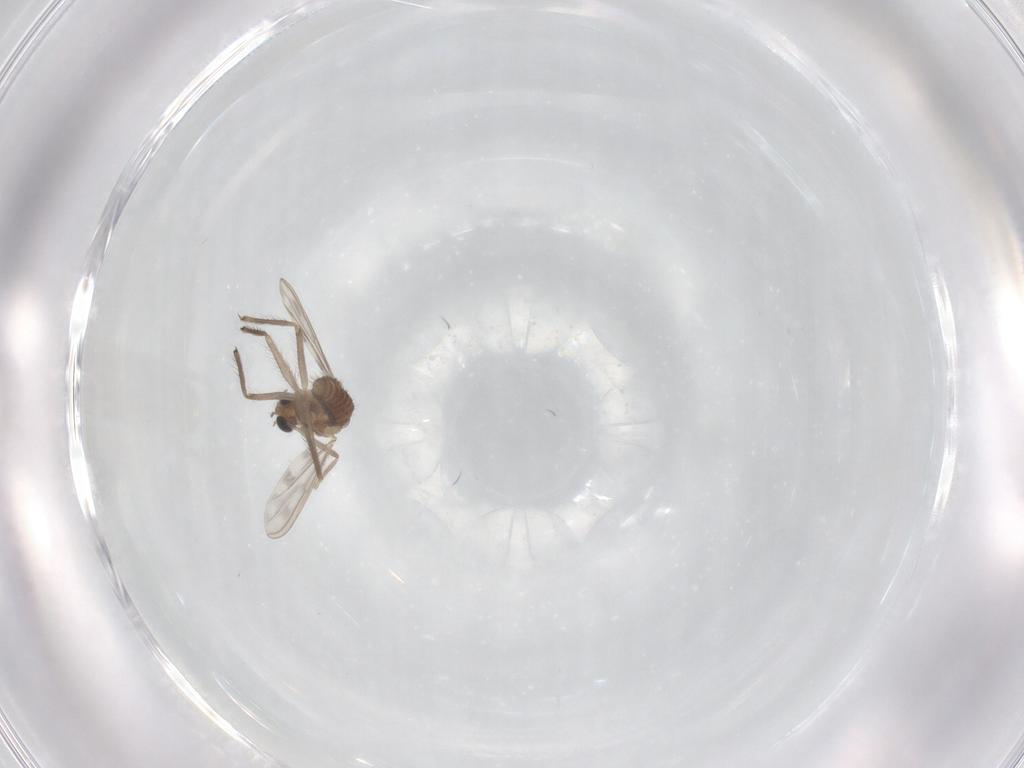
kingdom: Animalia
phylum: Arthropoda
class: Insecta
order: Diptera
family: Chironomidae
